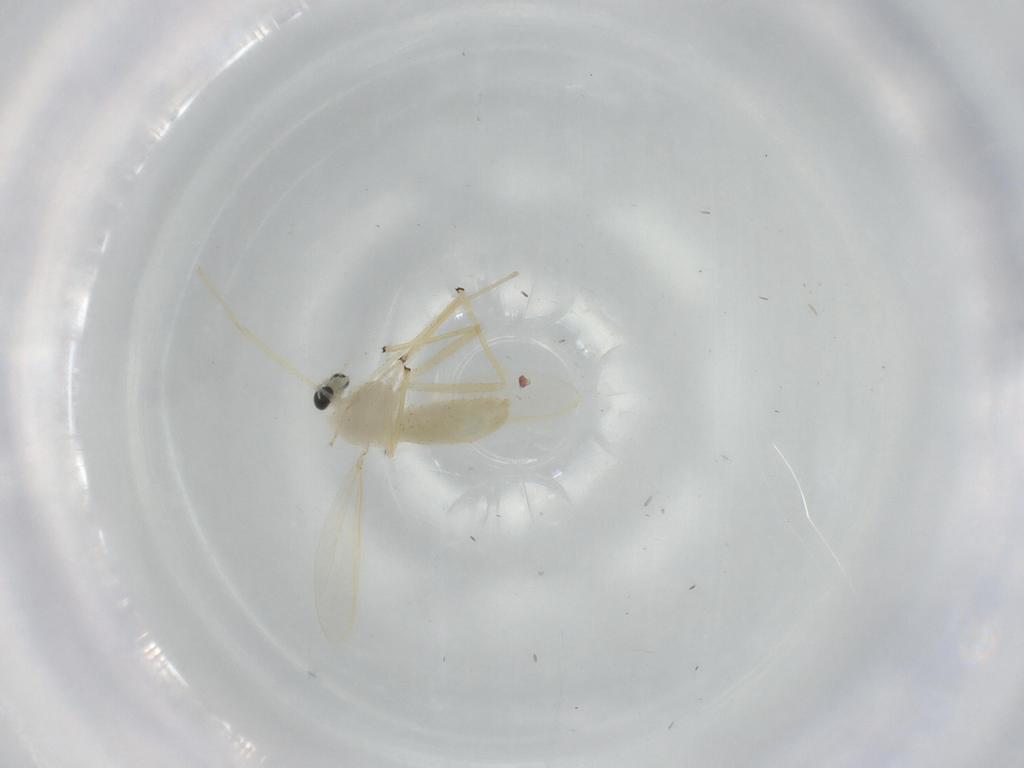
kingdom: Animalia
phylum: Arthropoda
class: Insecta
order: Diptera
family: Chironomidae
